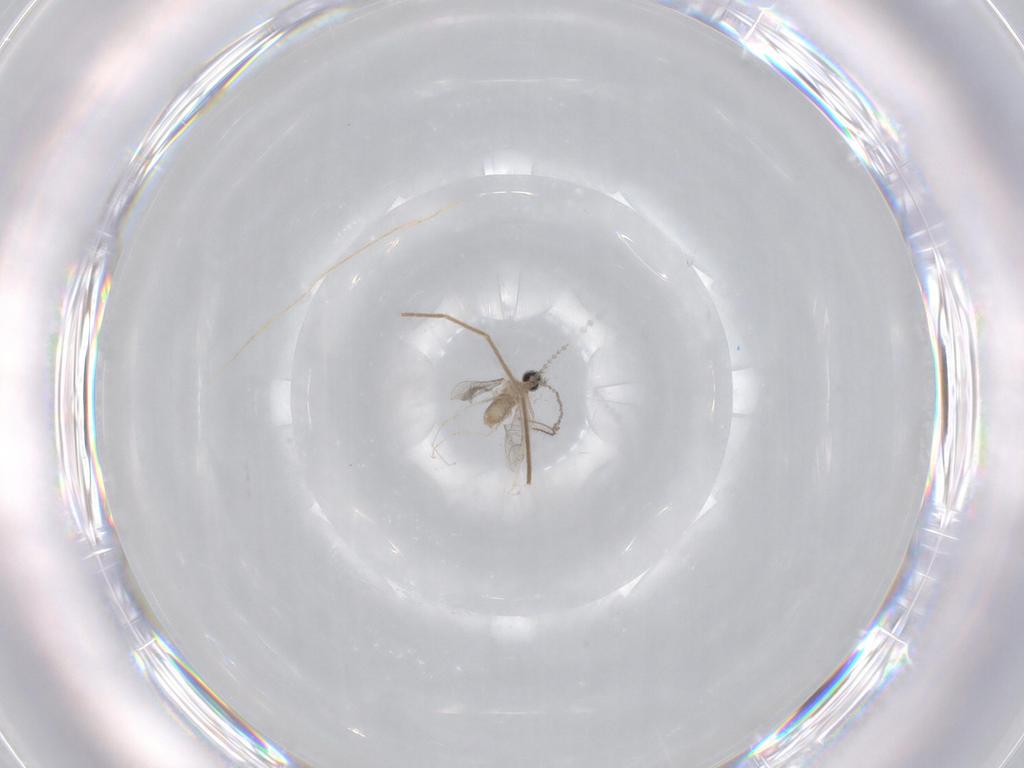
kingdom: Animalia
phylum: Arthropoda
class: Insecta
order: Diptera
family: Chironomidae
